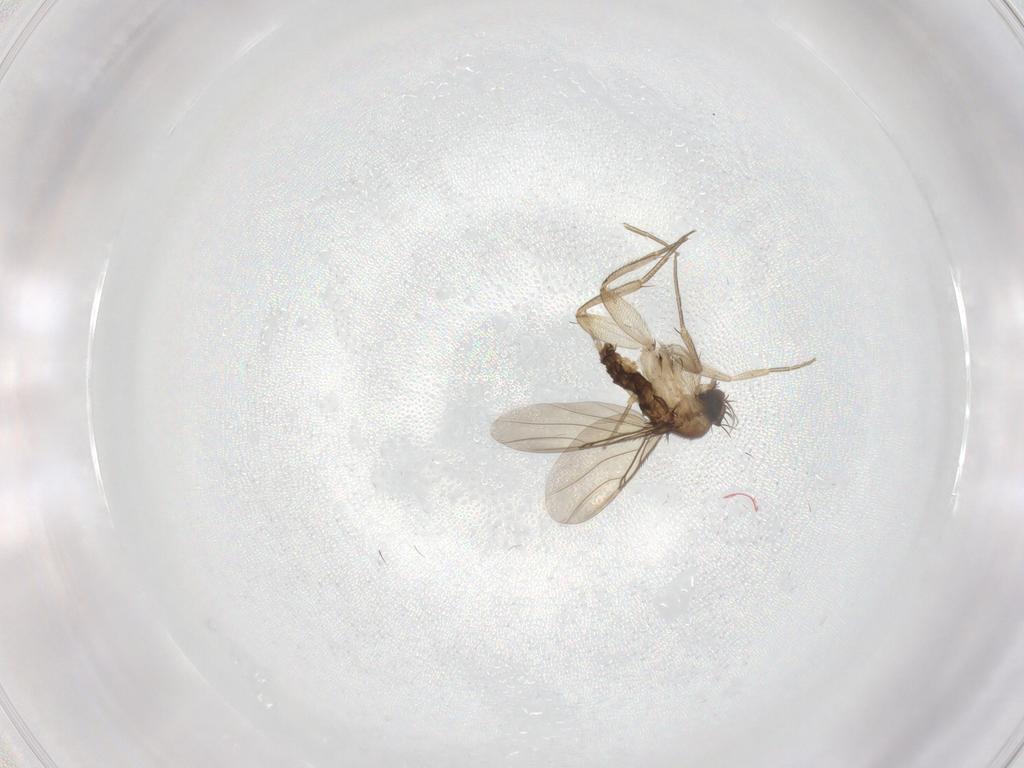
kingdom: Animalia
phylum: Arthropoda
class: Insecta
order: Diptera
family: Phoridae
